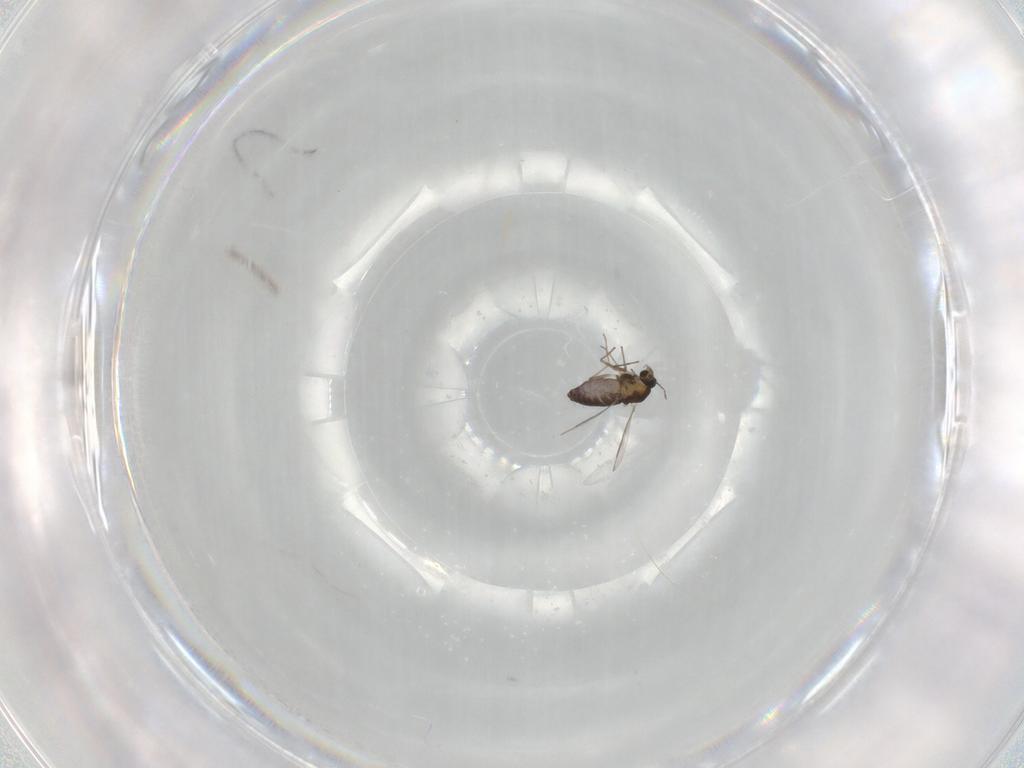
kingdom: Animalia
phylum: Arthropoda
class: Insecta
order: Diptera
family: Chironomidae
